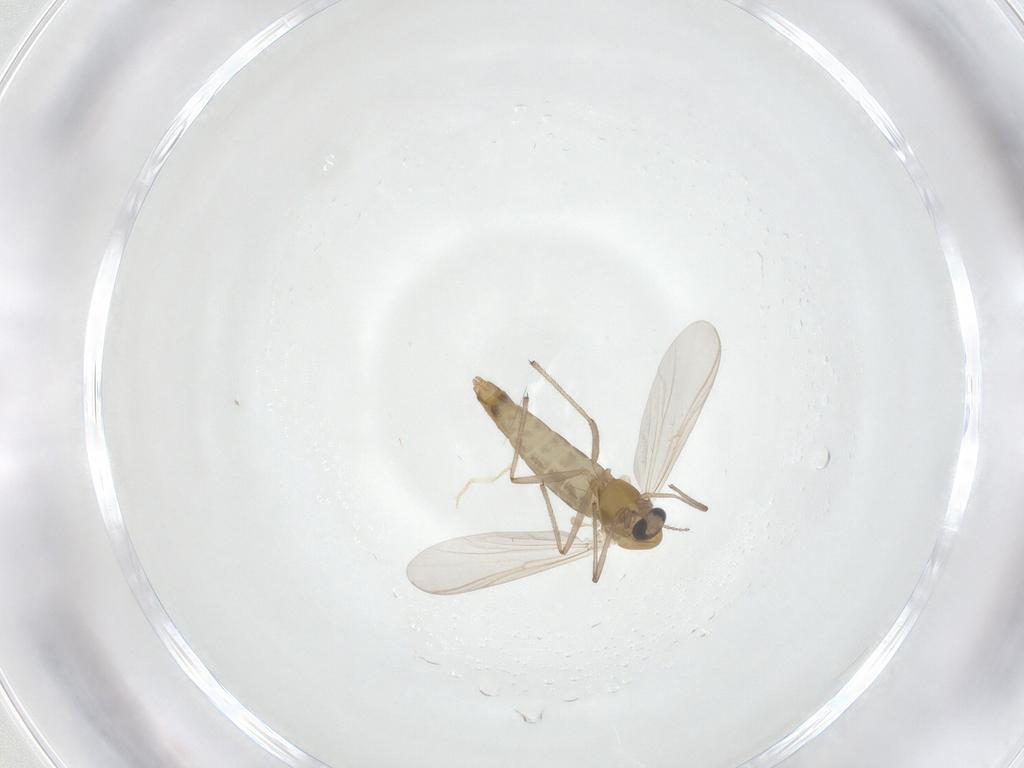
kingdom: Animalia
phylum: Arthropoda
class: Insecta
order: Diptera
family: Chironomidae
